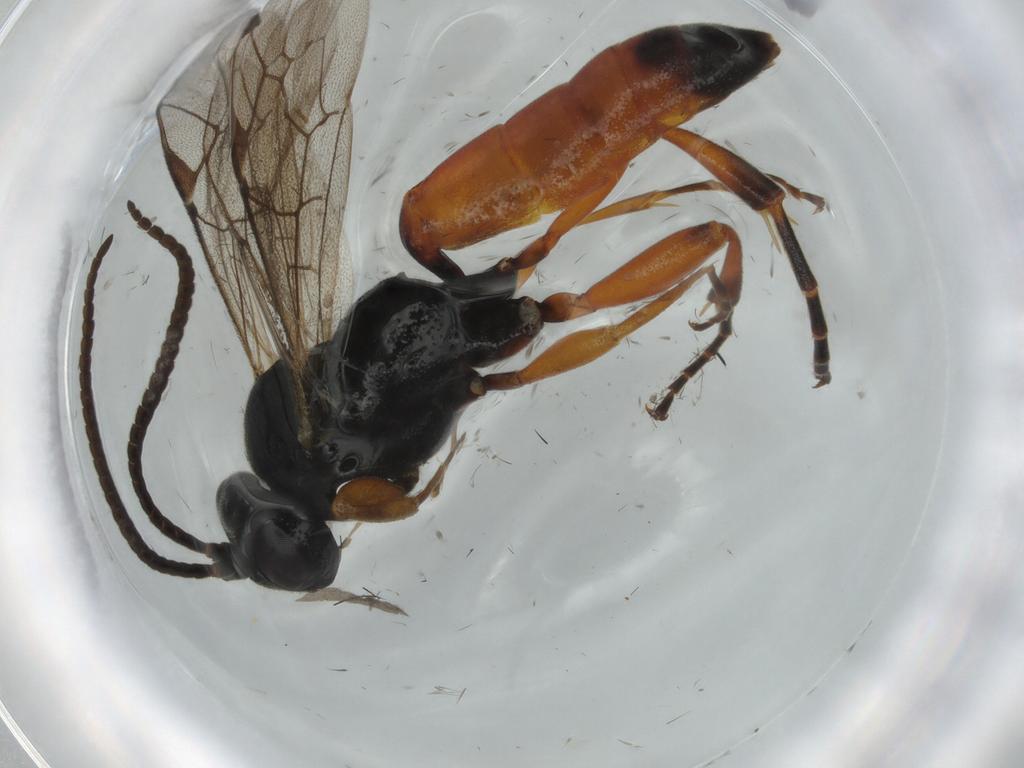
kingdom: Animalia
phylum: Arthropoda
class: Insecta
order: Hymenoptera
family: Ichneumonidae
